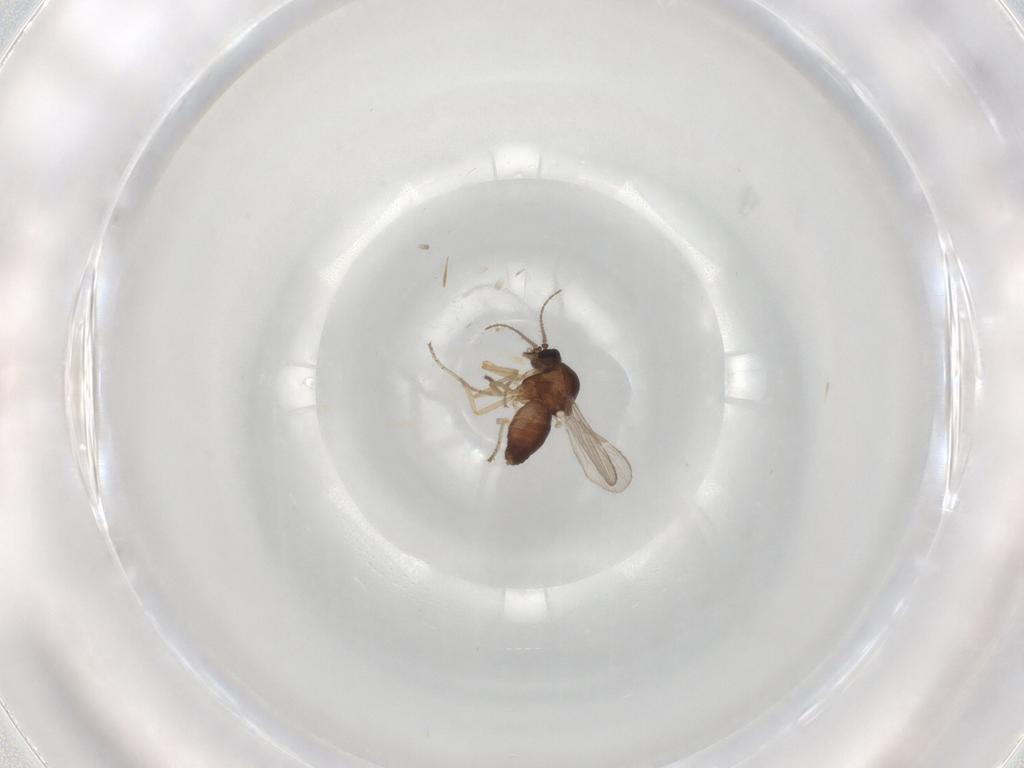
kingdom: Animalia
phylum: Arthropoda
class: Insecta
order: Diptera
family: Ceratopogonidae
